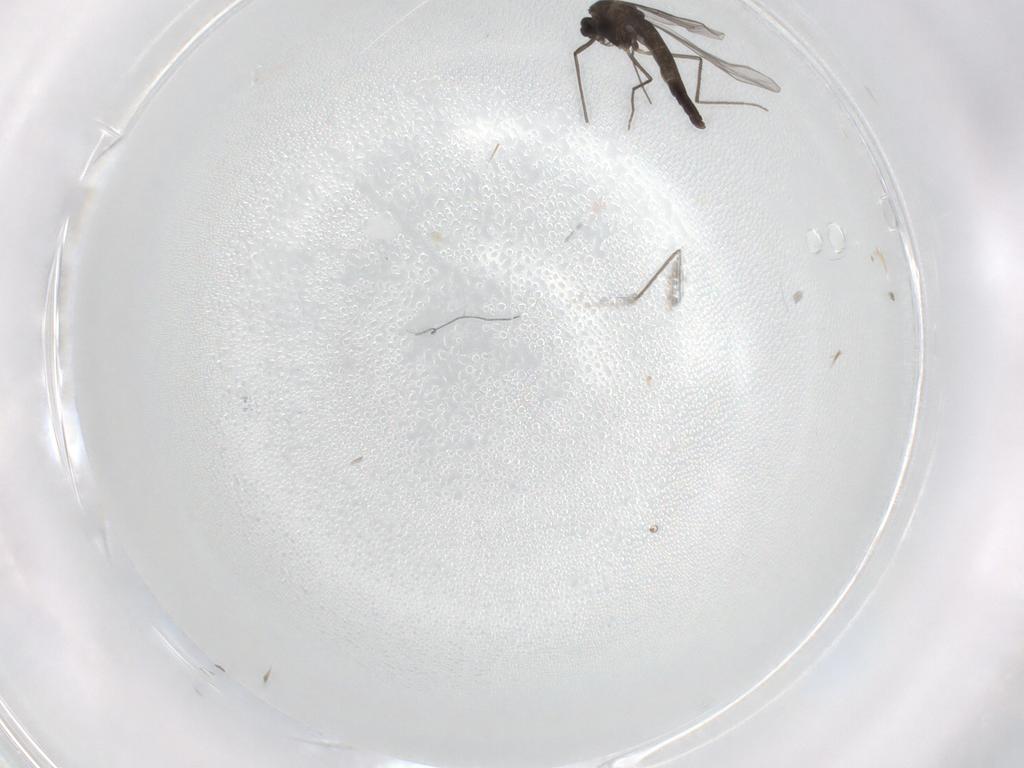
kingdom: Animalia
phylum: Arthropoda
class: Insecta
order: Diptera
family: Chironomidae
